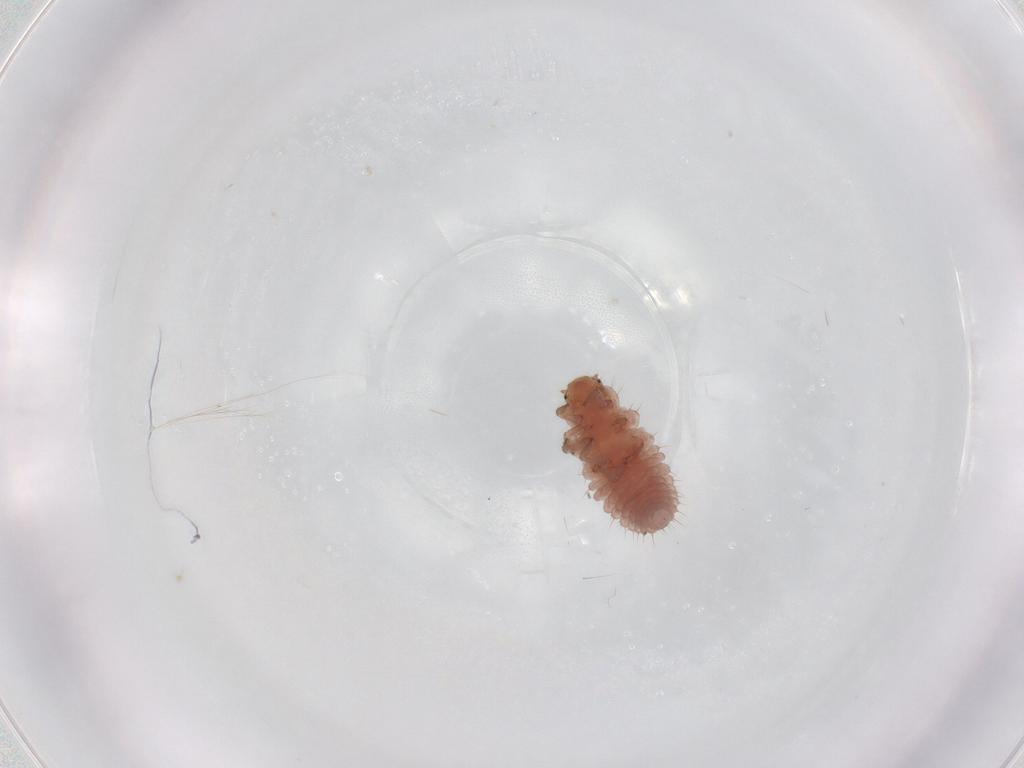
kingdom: Animalia
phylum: Arthropoda
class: Insecta
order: Coleoptera
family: Coccinellidae
